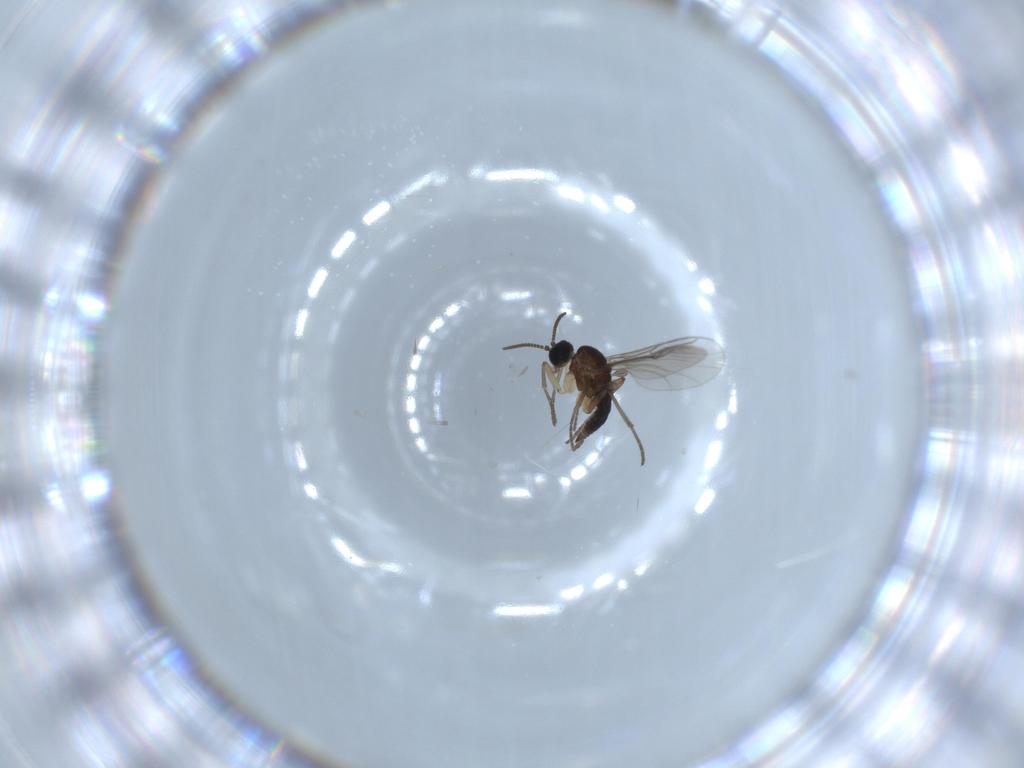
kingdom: Animalia
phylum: Arthropoda
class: Insecta
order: Diptera
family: Sciaridae
